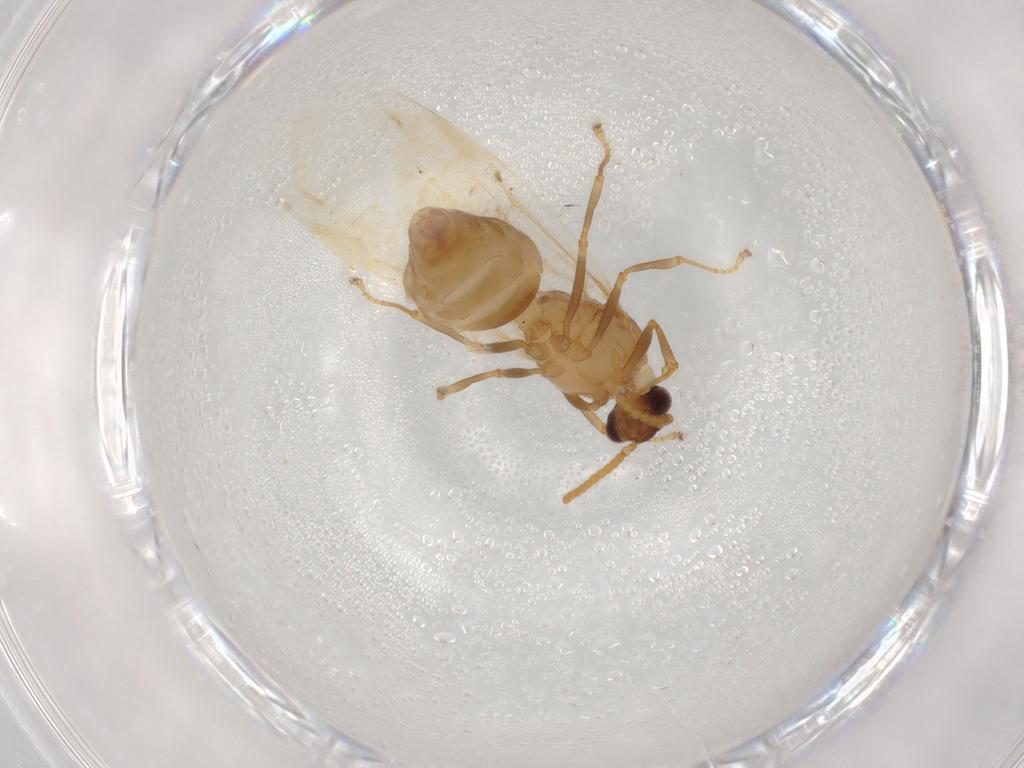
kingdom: Animalia
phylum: Arthropoda
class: Insecta
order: Hymenoptera
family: Formicidae
